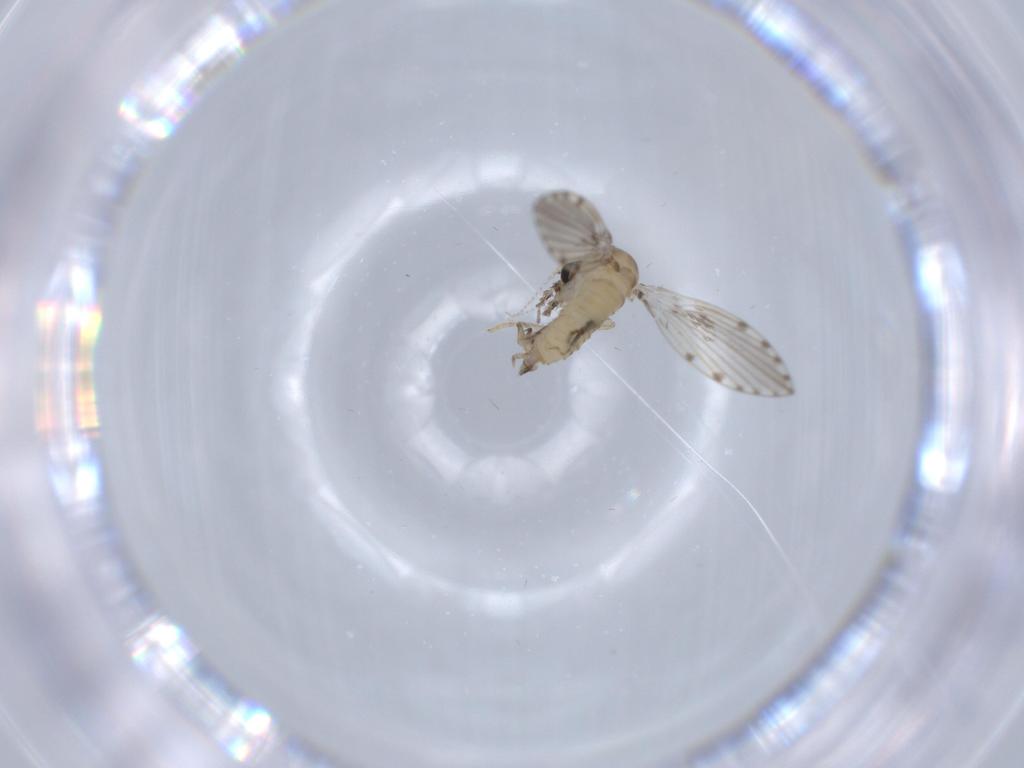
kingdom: Animalia
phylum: Arthropoda
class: Insecta
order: Diptera
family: Psychodidae
